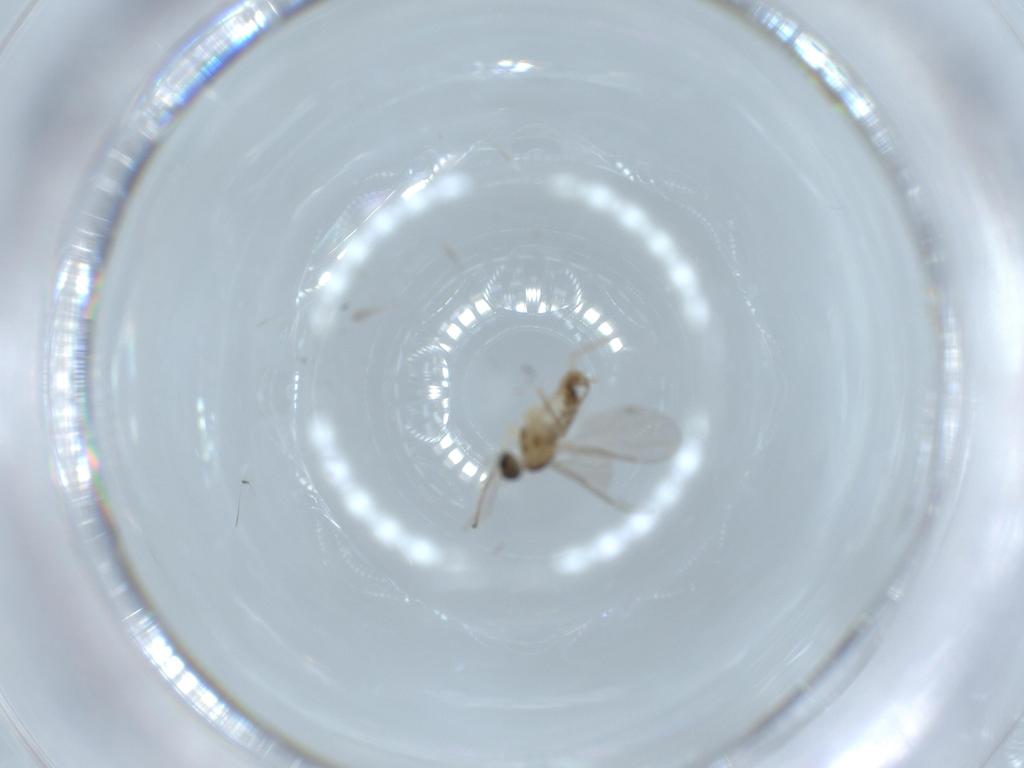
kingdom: Animalia
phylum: Arthropoda
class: Insecta
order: Diptera
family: Cecidomyiidae
